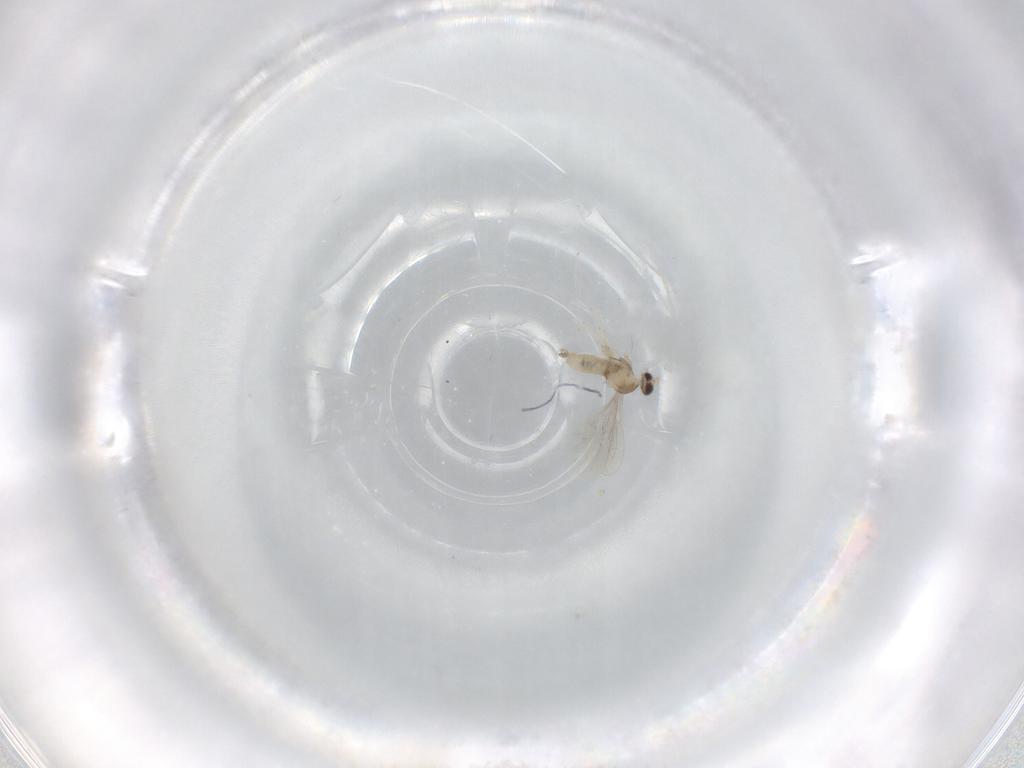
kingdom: Animalia
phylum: Arthropoda
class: Insecta
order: Diptera
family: Cecidomyiidae
